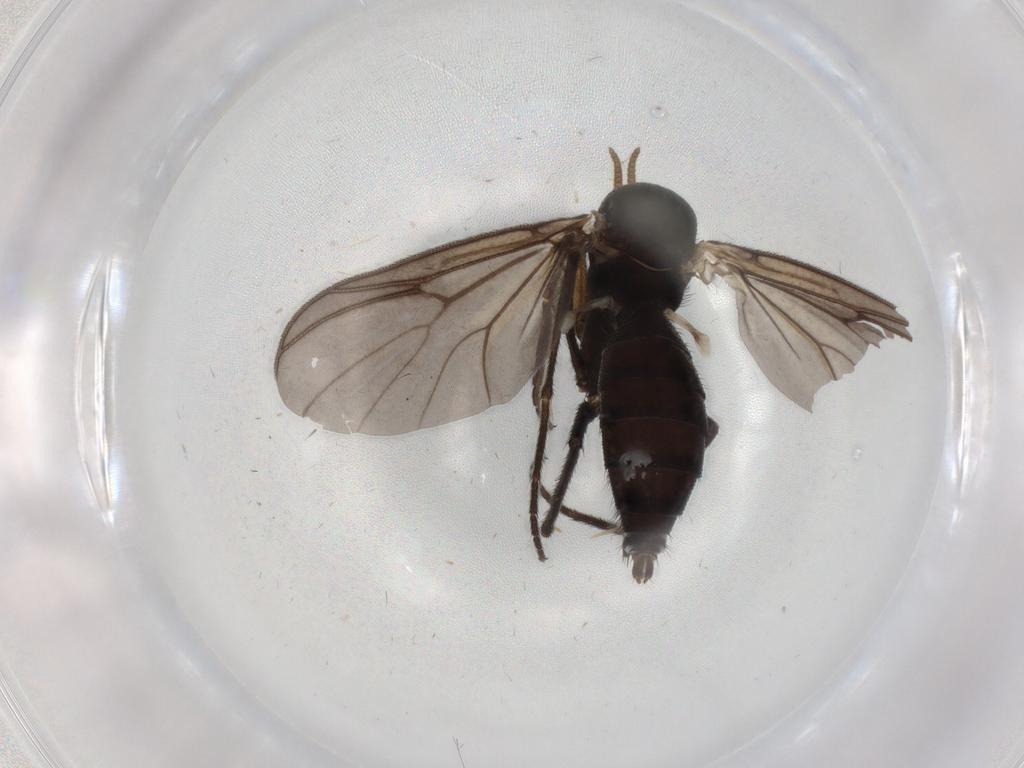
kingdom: Animalia
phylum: Arthropoda
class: Insecta
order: Diptera
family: Mycetophilidae
